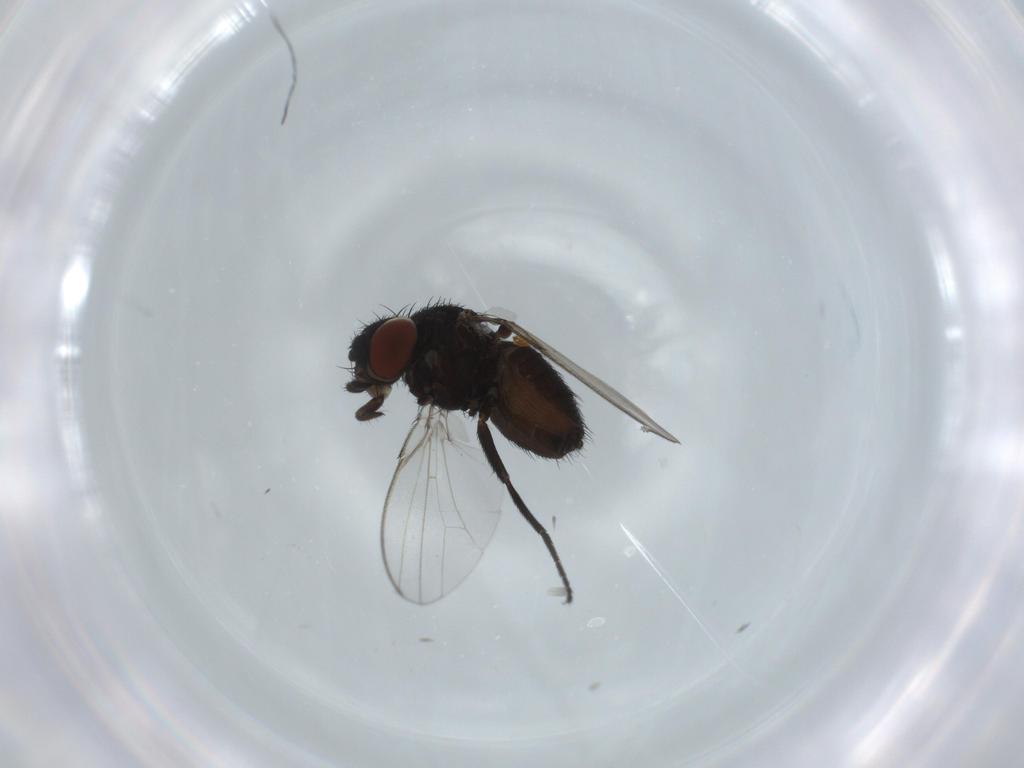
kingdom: Animalia
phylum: Arthropoda
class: Insecta
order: Diptera
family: Milichiidae
